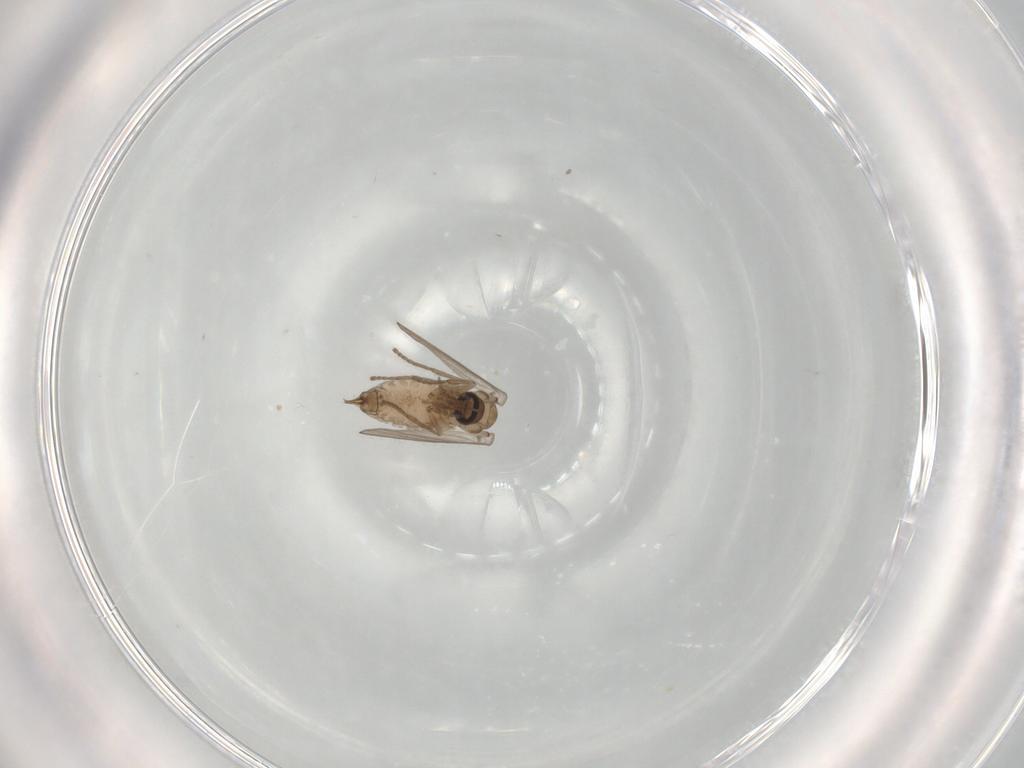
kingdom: Animalia
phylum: Arthropoda
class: Insecta
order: Diptera
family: Psychodidae
